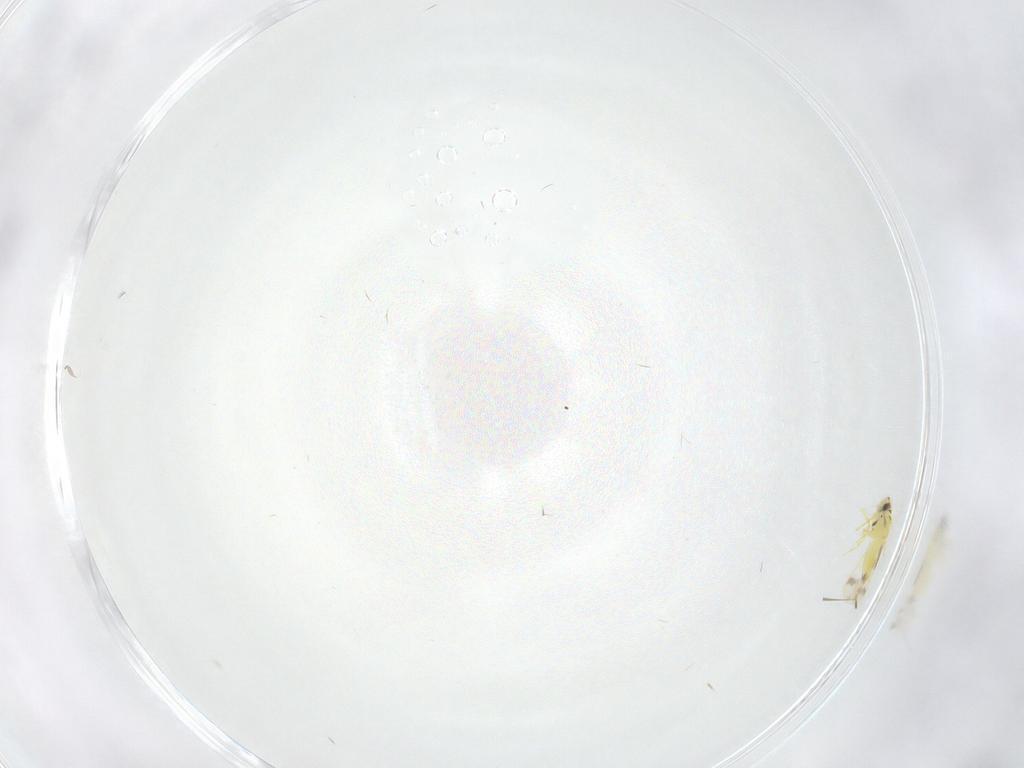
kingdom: Animalia
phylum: Arthropoda
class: Insecta
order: Hemiptera
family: Aleyrodidae
